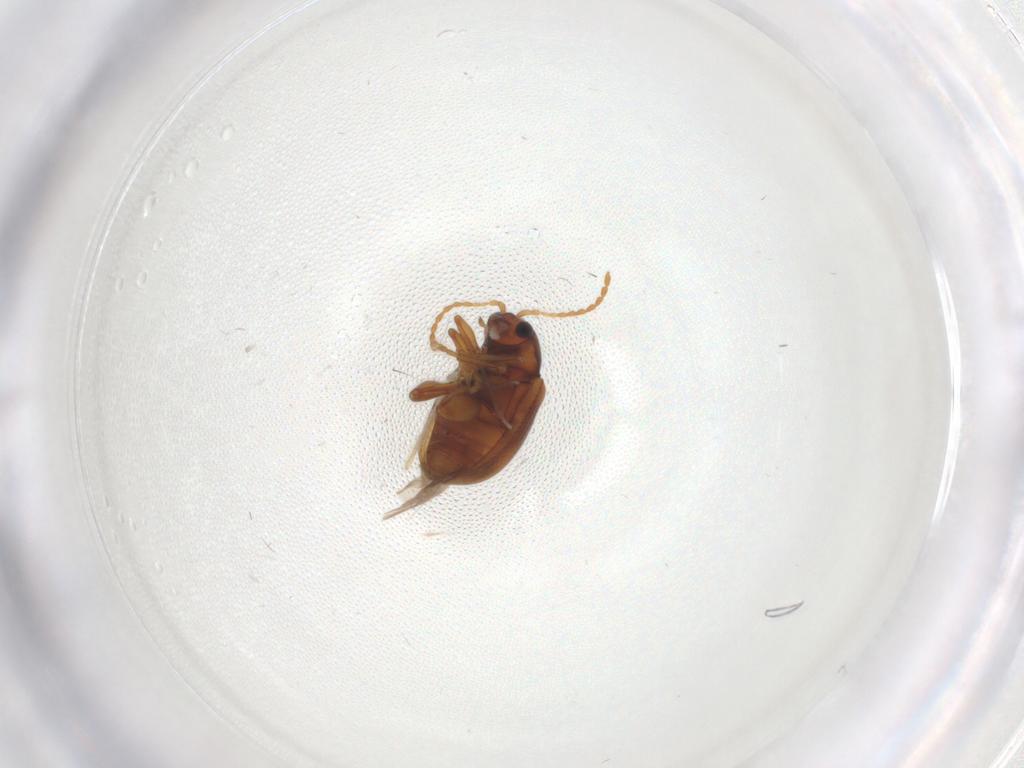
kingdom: Animalia
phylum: Arthropoda
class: Insecta
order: Coleoptera
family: Chrysomelidae
